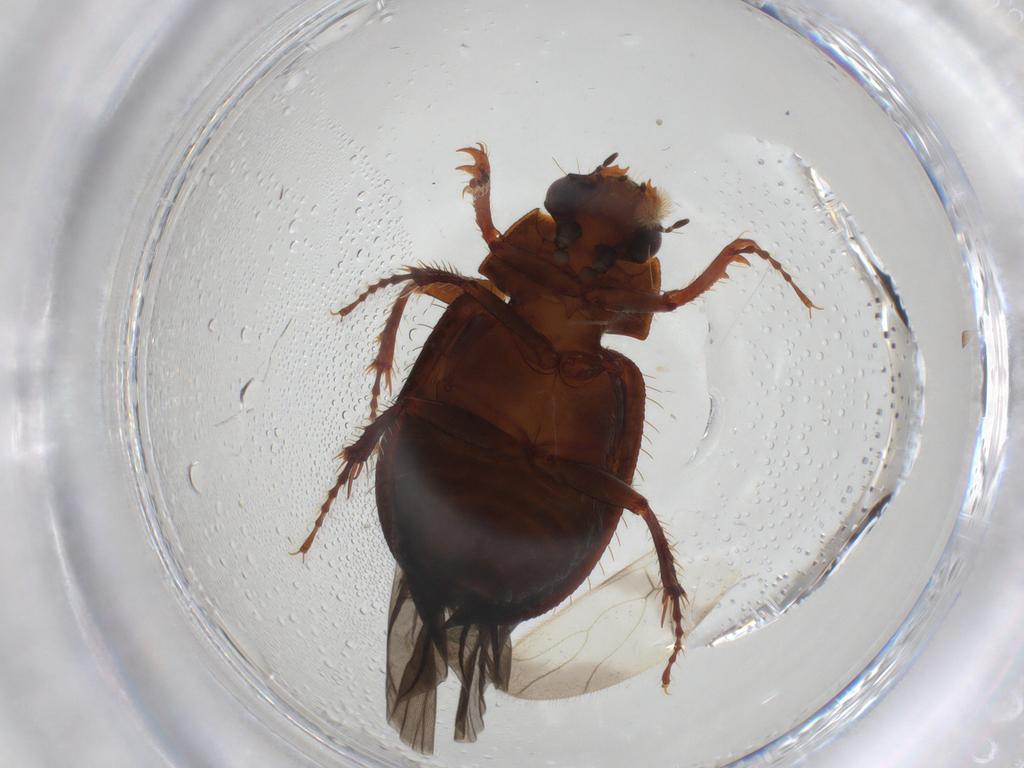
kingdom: Animalia
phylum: Arthropoda
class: Insecta
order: Coleoptera
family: Hybosoridae
